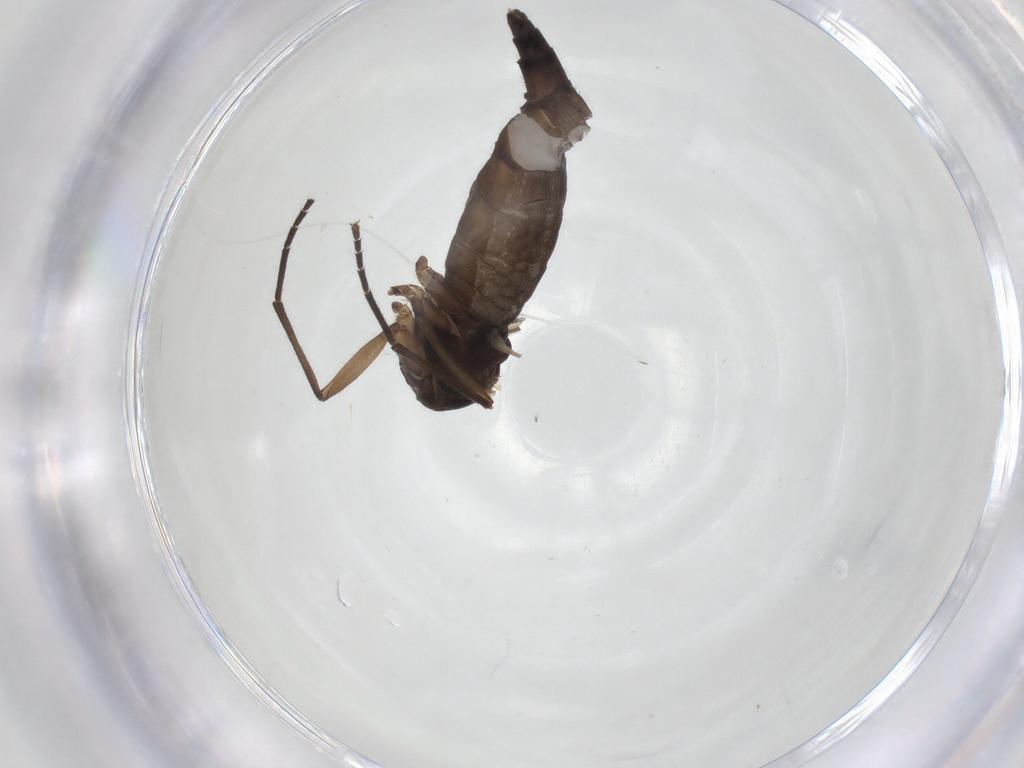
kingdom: Animalia
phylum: Arthropoda
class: Insecta
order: Diptera
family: Sciaridae
